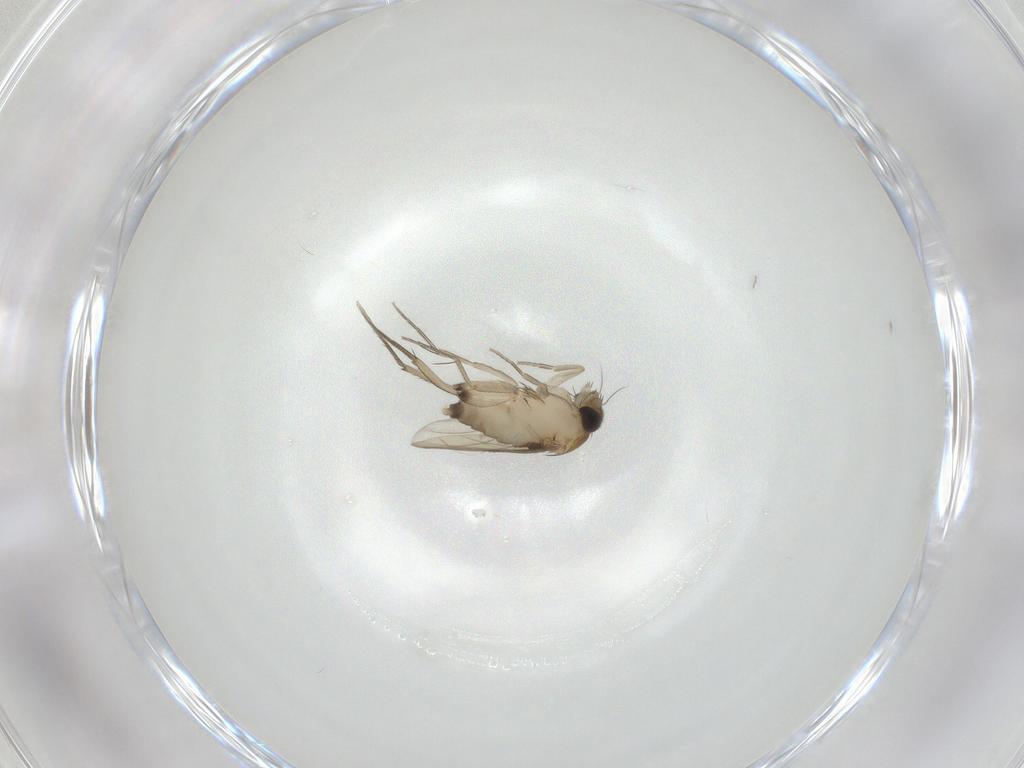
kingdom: Animalia
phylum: Arthropoda
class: Insecta
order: Diptera
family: Phoridae
